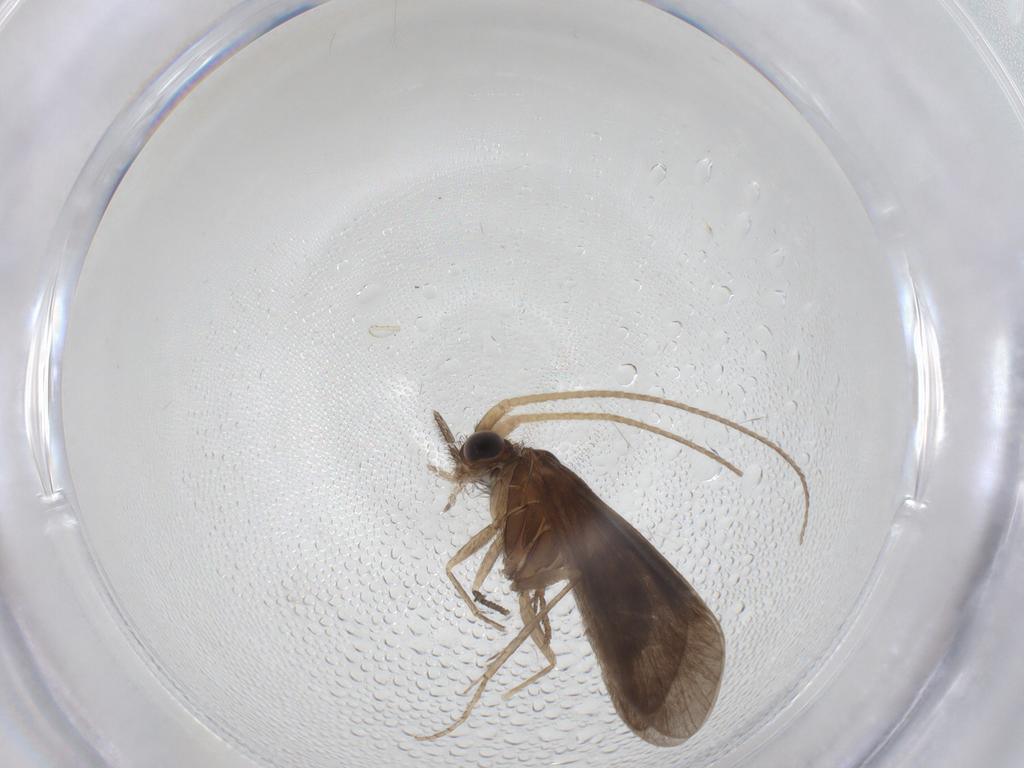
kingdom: Animalia
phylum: Arthropoda
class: Insecta
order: Trichoptera
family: Helicopsychidae
